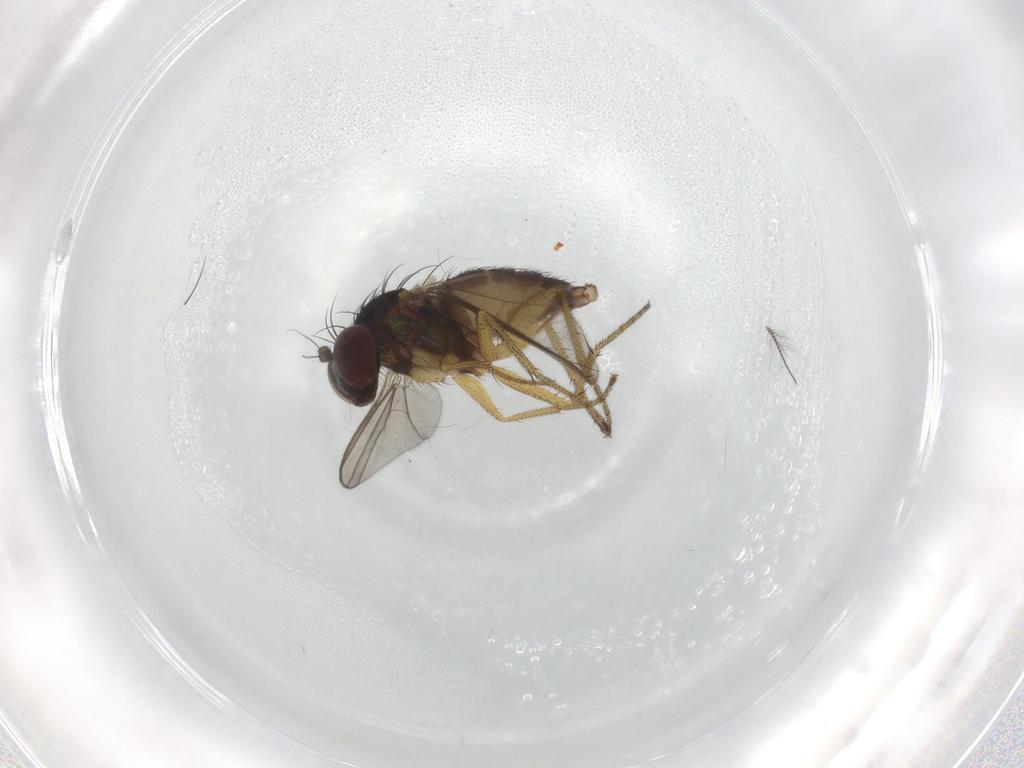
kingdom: Animalia
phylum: Arthropoda
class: Insecta
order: Diptera
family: Dolichopodidae
